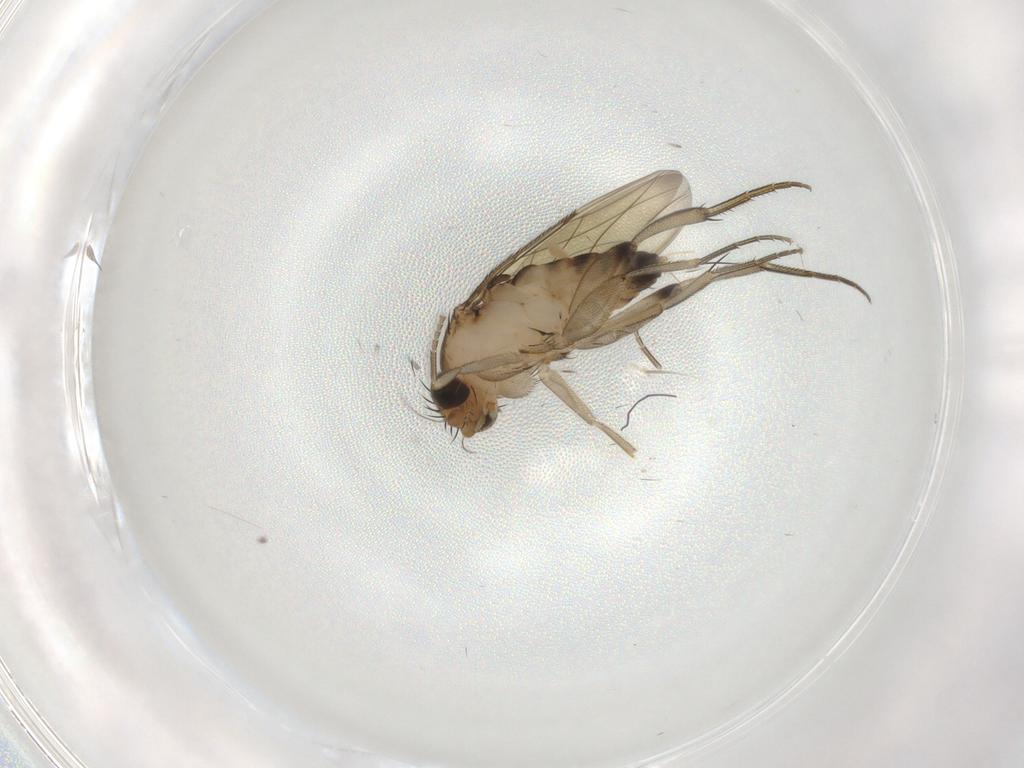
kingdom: Animalia
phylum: Arthropoda
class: Insecta
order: Diptera
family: Phoridae
